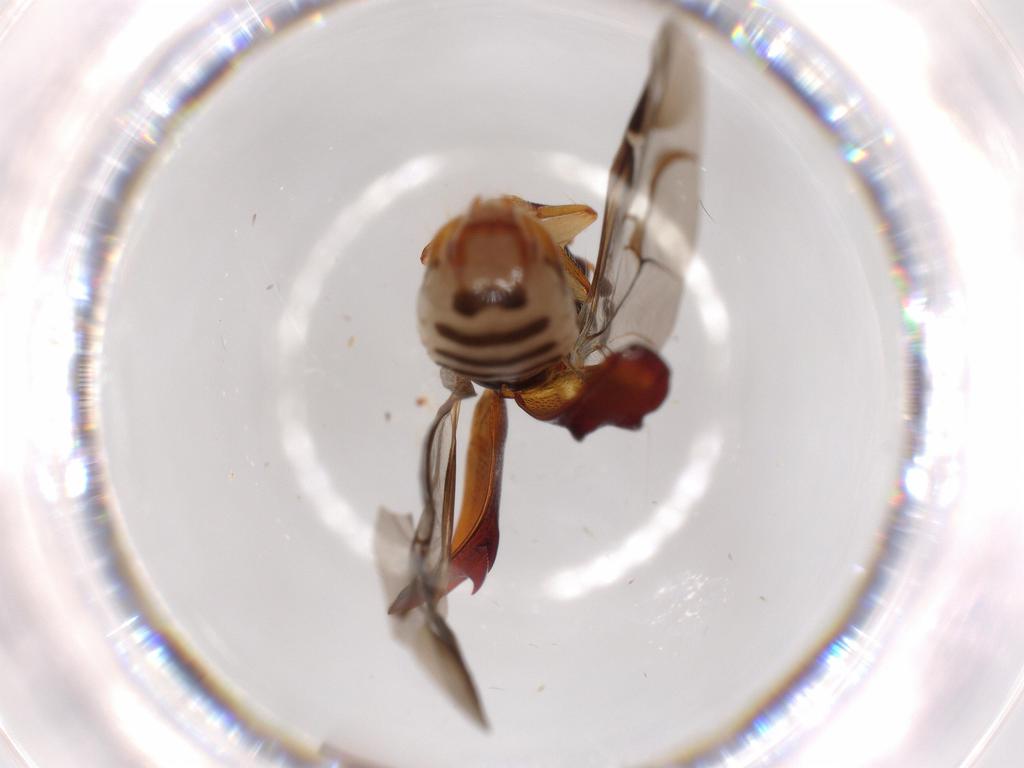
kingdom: Animalia
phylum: Arthropoda
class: Insecta
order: Coleoptera
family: Bostrichidae
